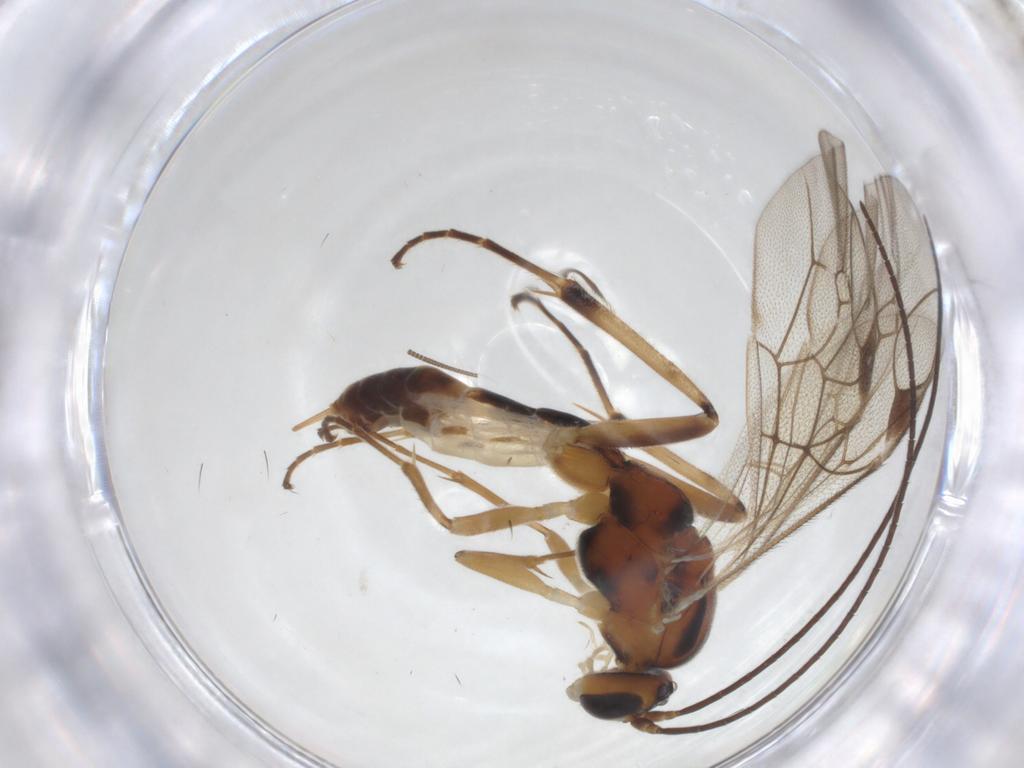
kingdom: Animalia
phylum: Arthropoda
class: Insecta
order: Hymenoptera
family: Ichneumonidae
